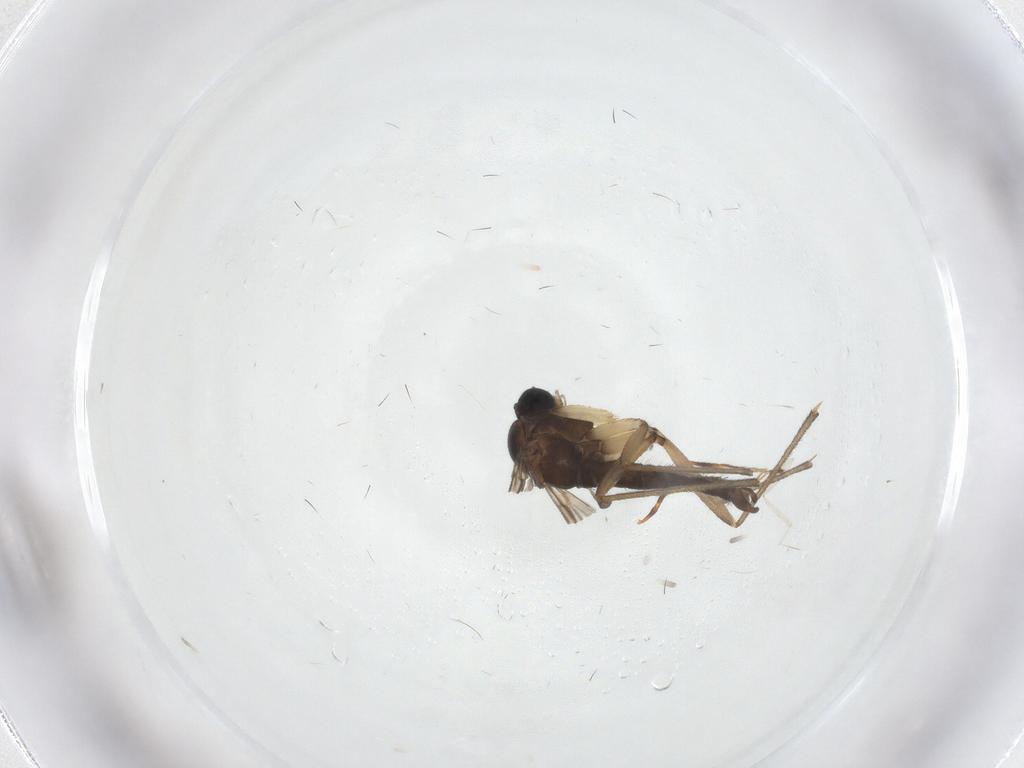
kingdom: Animalia
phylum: Arthropoda
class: Insecta
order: Diptera
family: Sciaridae
